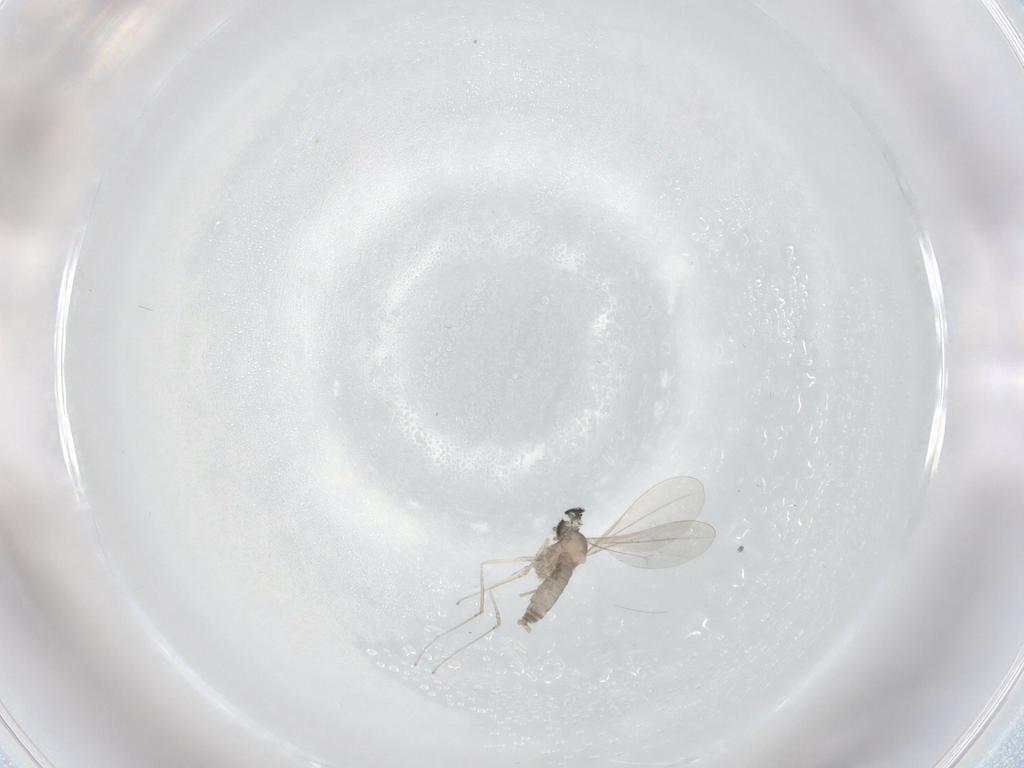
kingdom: Animalia
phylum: Arthropoda
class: Insecta
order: Diptera
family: Cecidomyiidae
